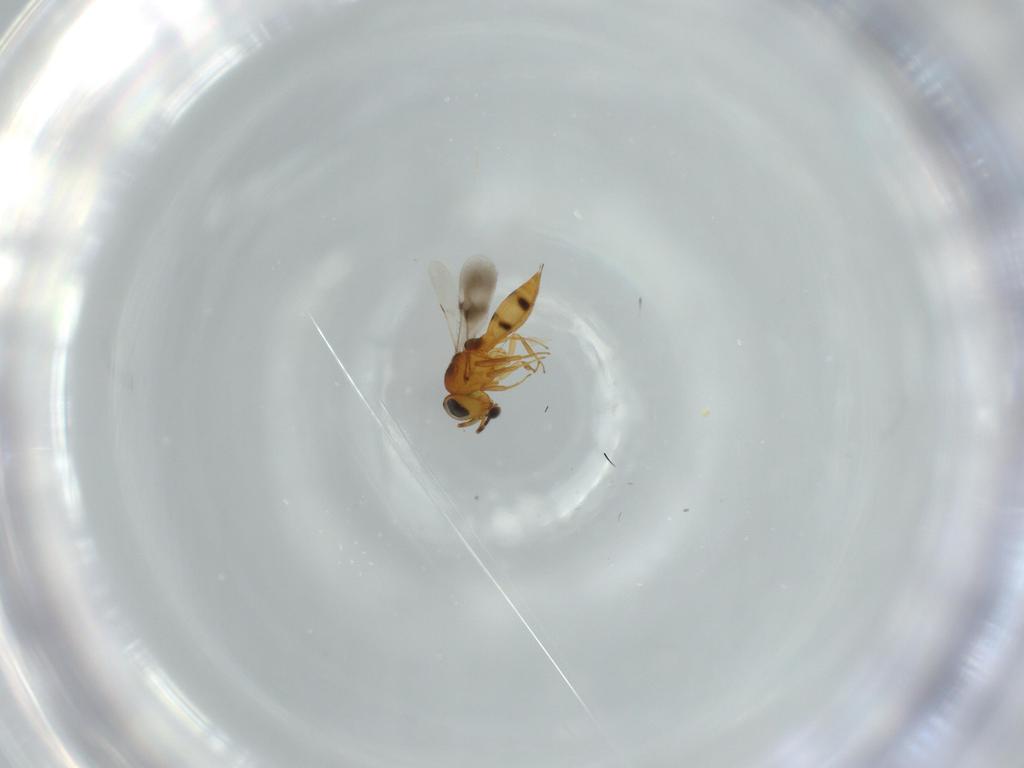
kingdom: Animalia
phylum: Arthropoda
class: Insecta
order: Hymenoptera
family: Scelionidae
